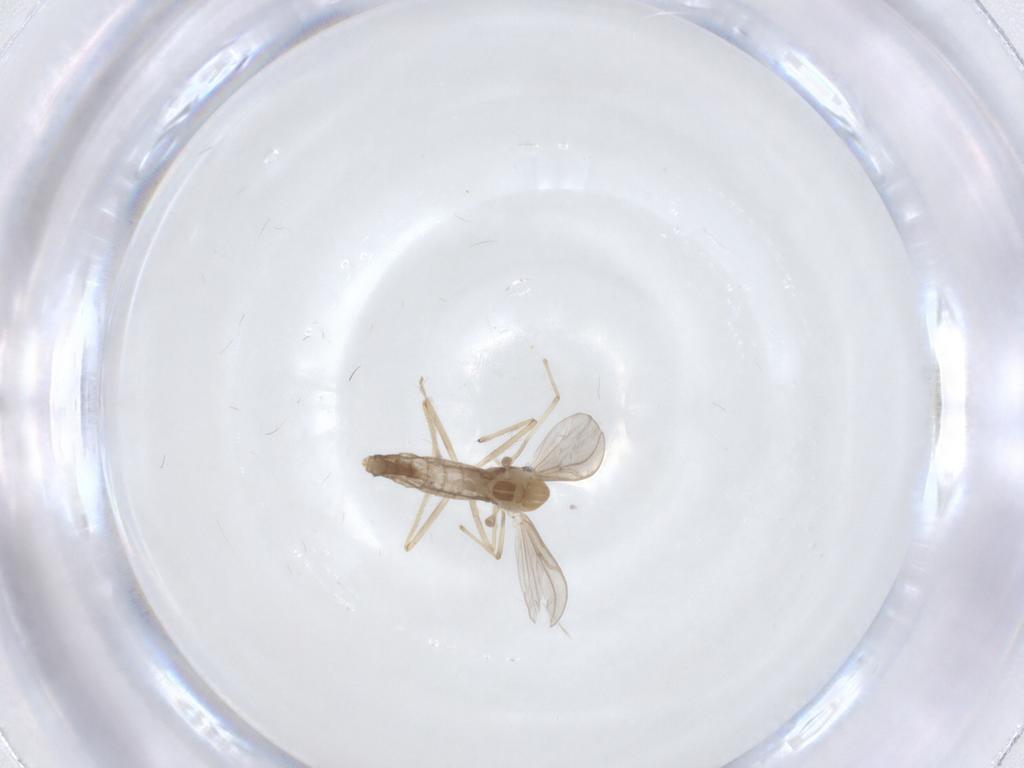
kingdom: Animalia
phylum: Arthropoda
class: Insecta
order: Diptera
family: Chironomidae
